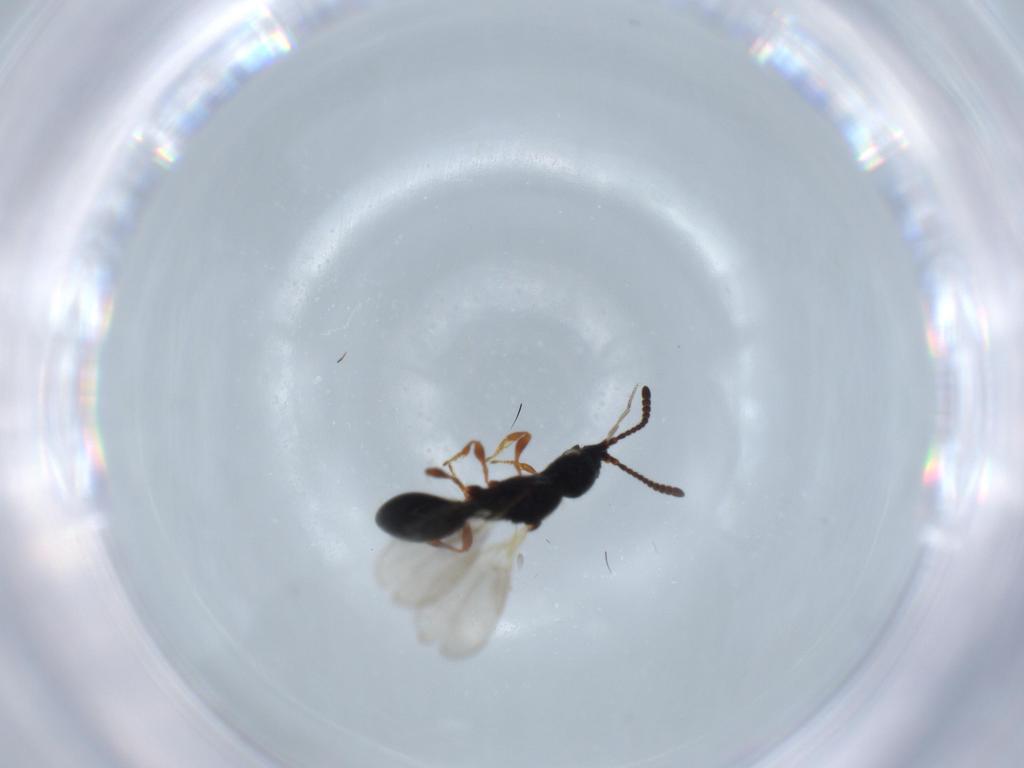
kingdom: Animalia
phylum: Arthropoda
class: Insecta
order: Hymenoptera
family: Diapriidae
